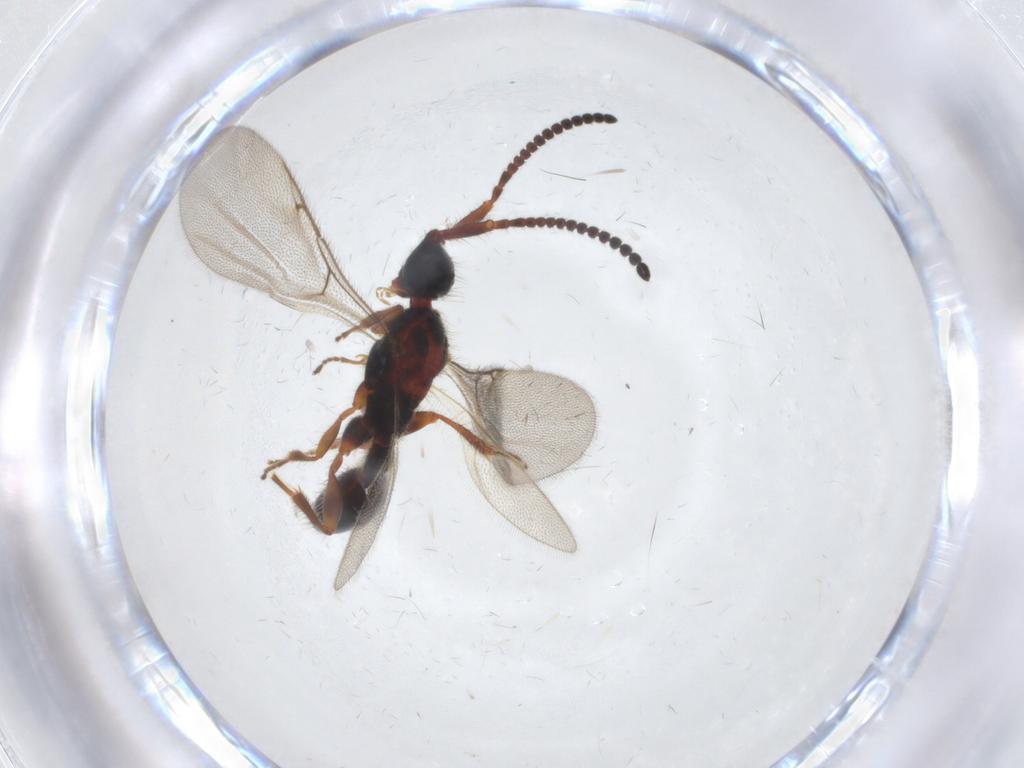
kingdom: Animalia
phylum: Arthropoda
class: Insecta
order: Hymenoptera
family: Diapriidae
